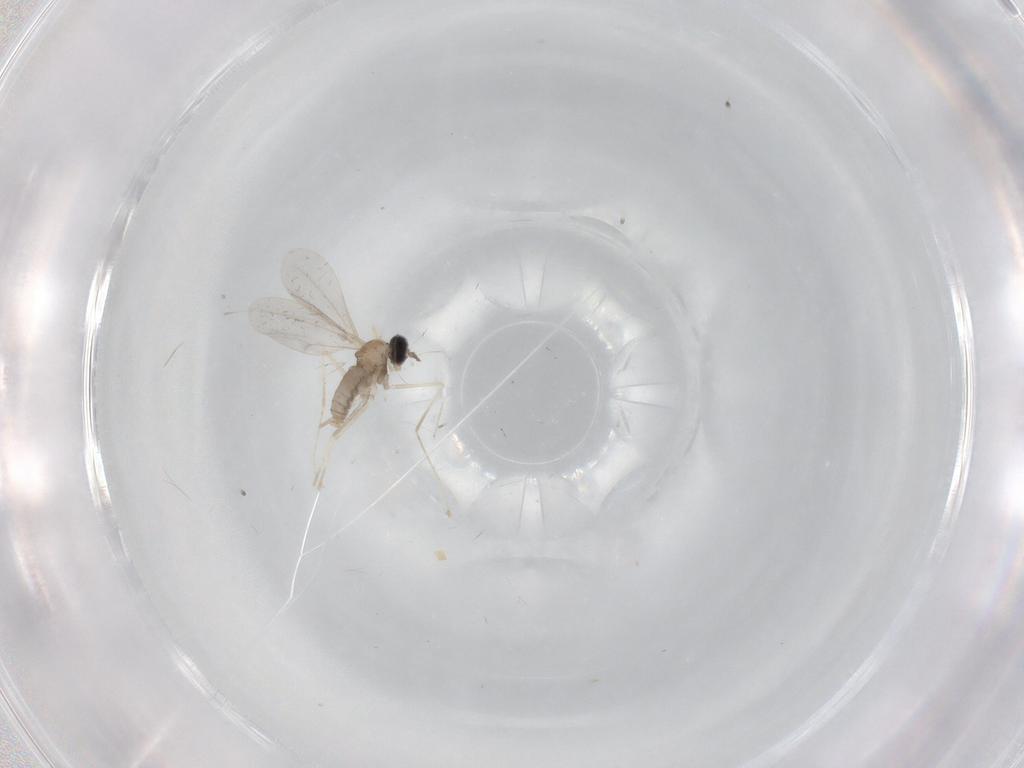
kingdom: Animalia
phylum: Arthropoda
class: Insecta
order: Diptera
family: Cecidomyiidae
